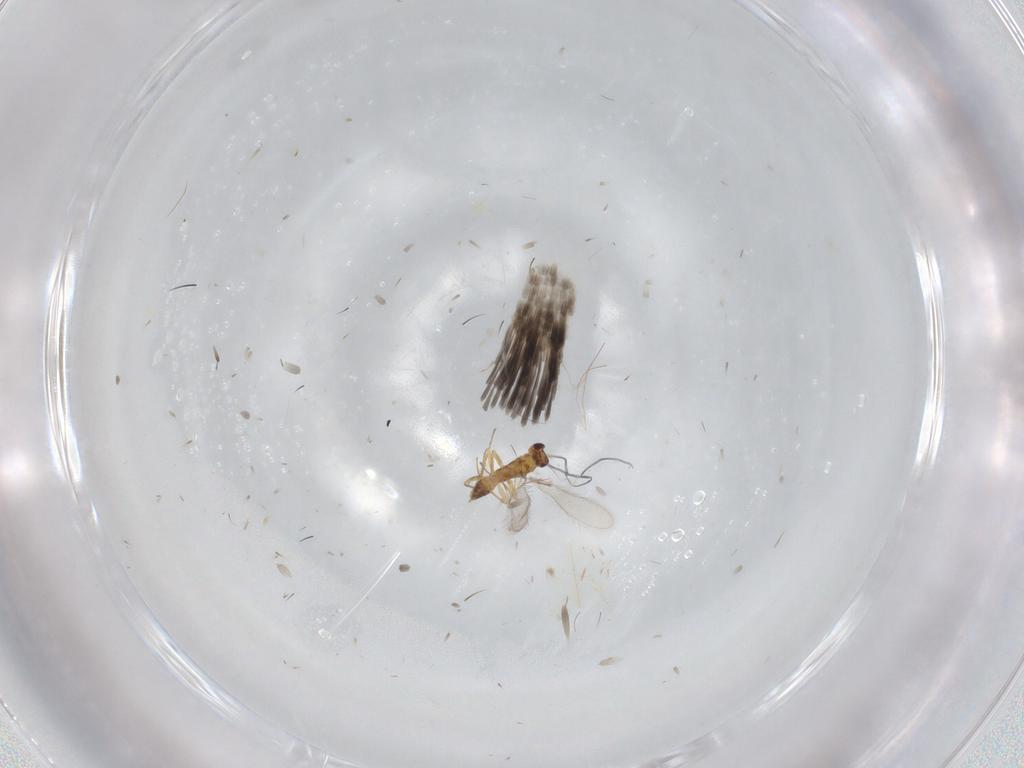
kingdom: Animalia
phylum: Arthropoda
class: Insecta
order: Hymenoptera
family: Mymaridae
